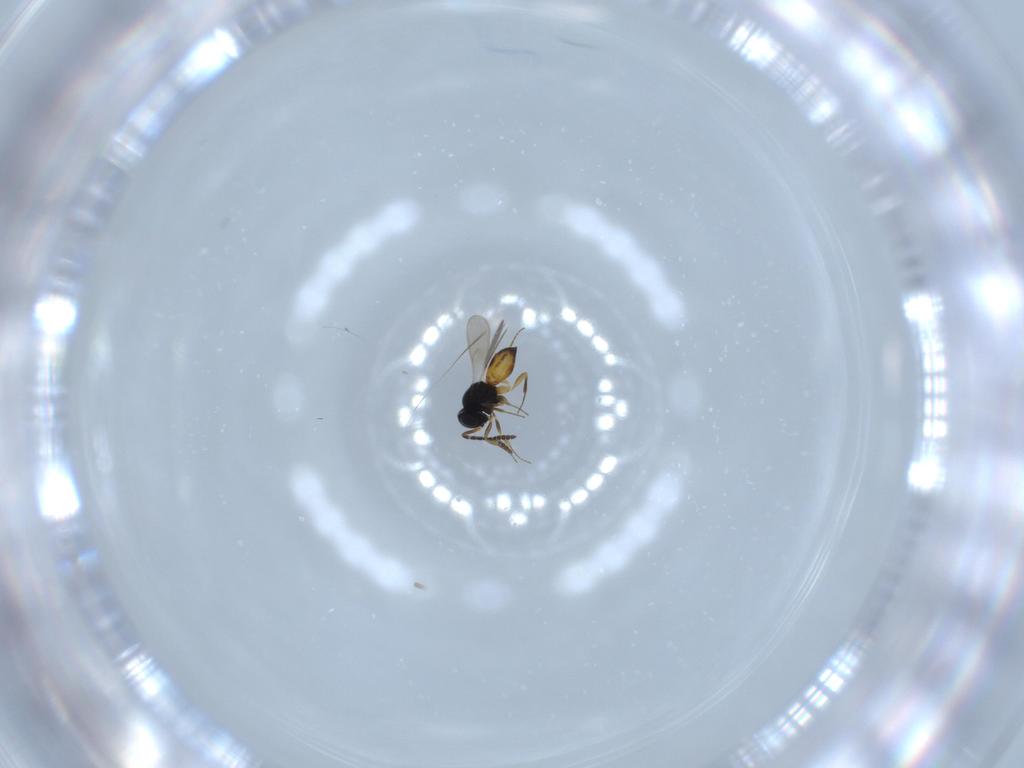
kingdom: Animalia
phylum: Arthropoda
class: Insecta
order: Hymenoptera
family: Scelionidae
